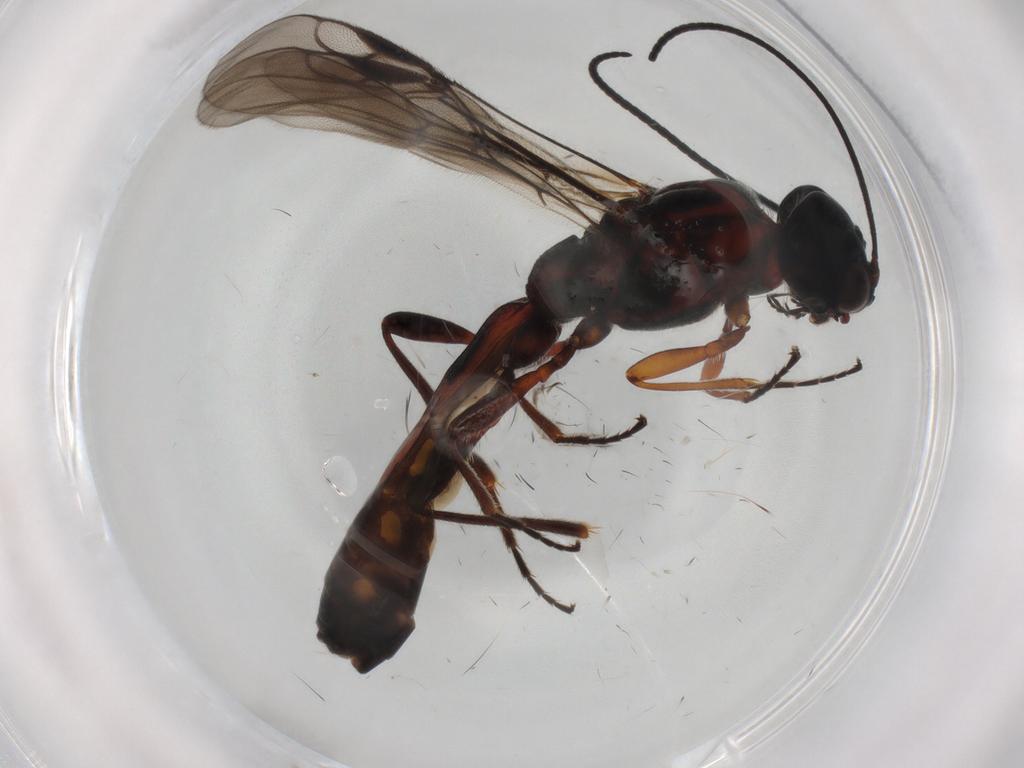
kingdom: Animalia
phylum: Arthropoda
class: Insecta
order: Hymenoptera
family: Braconidae
